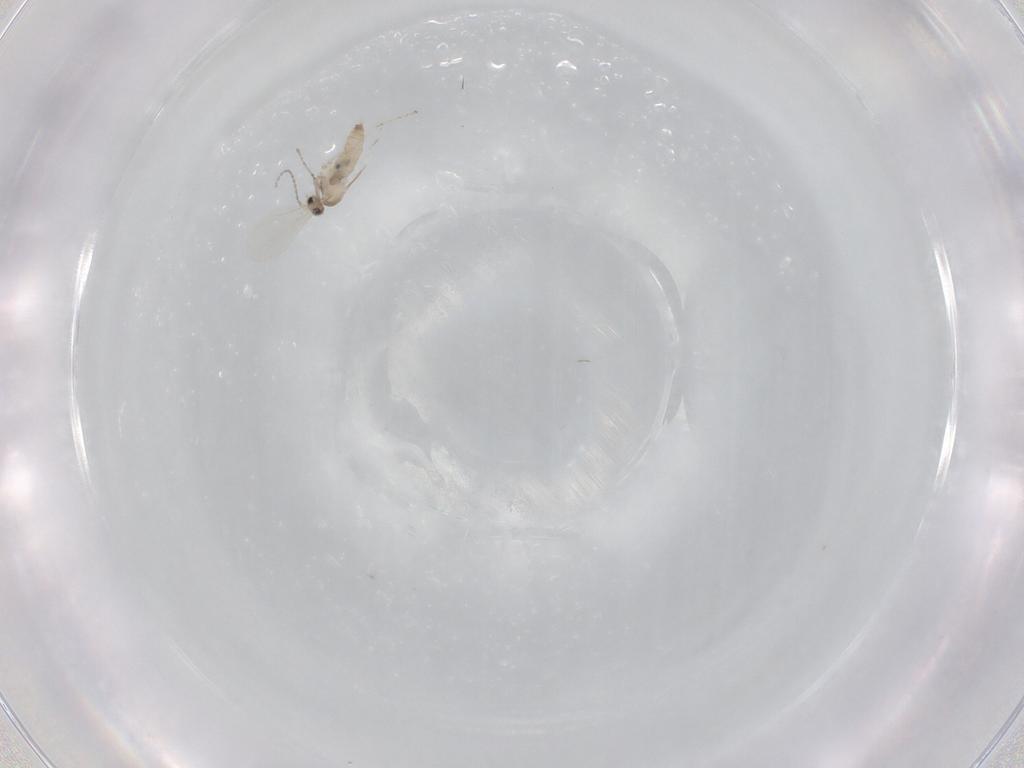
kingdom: Animalia
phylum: Arthropoda
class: Insecta
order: Diptera
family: Cecidomyiidae
